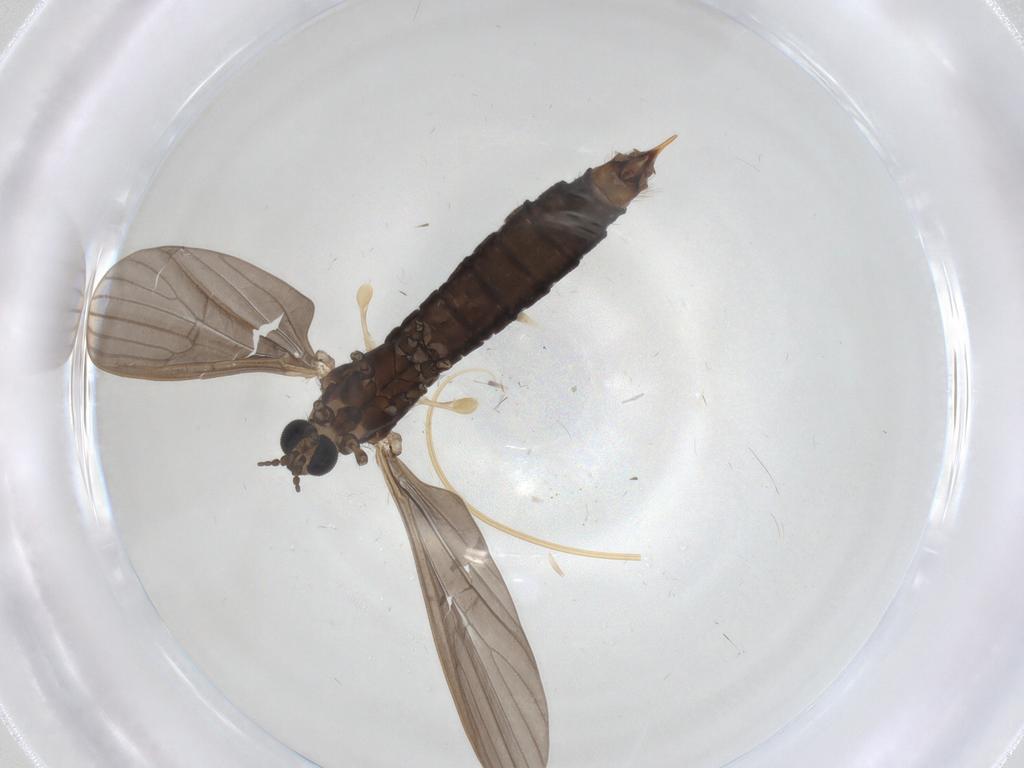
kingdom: Animalia
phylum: Arthropoda
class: Insecta
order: Diptera
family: Limoniidae
